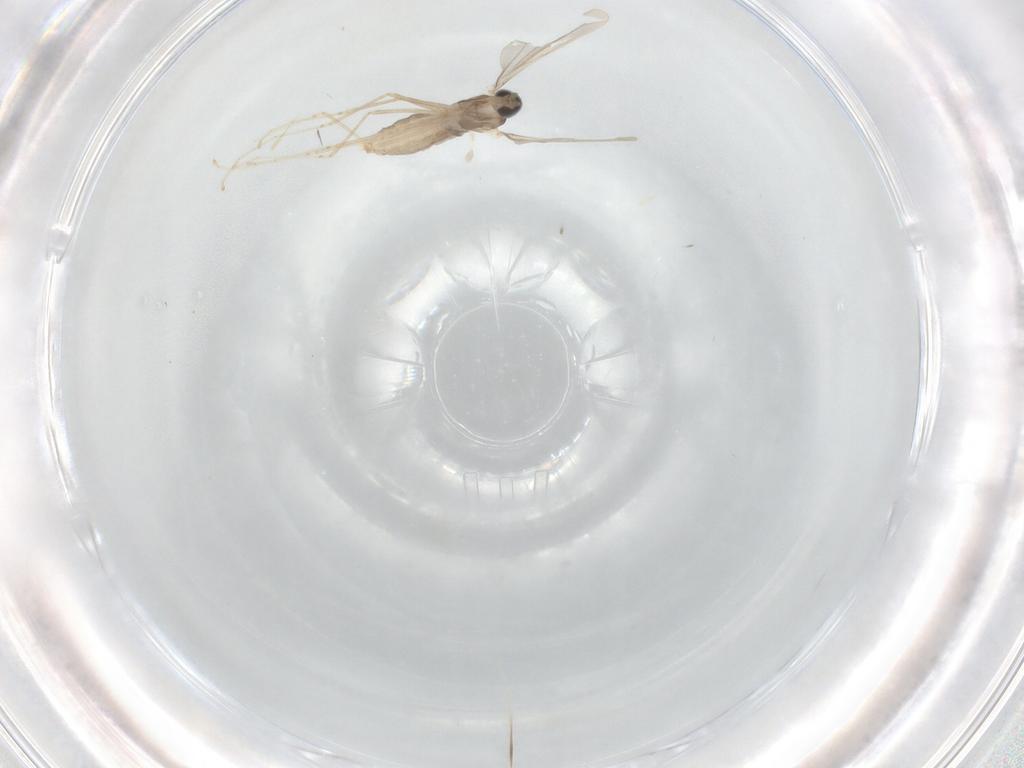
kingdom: Animalia
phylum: Arthropoda
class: Insecta
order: Diptera
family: Cecidomyiidae
